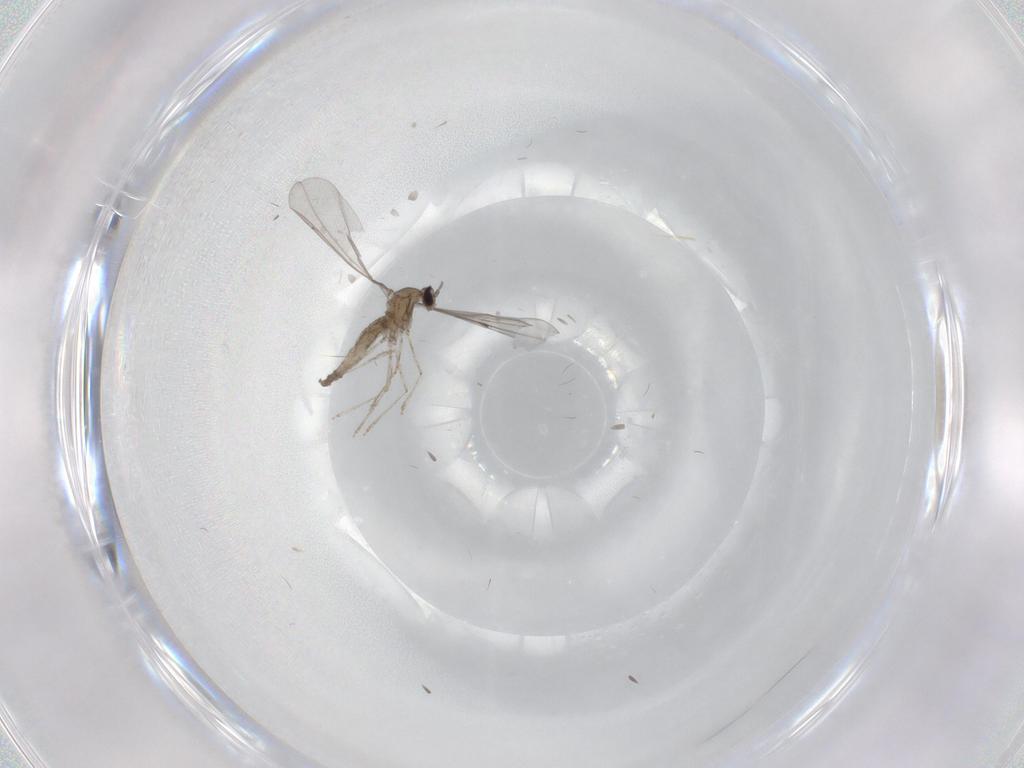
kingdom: Animalia
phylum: Arthropoda
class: Insecta
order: Diptera
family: Cecidomyiidae
